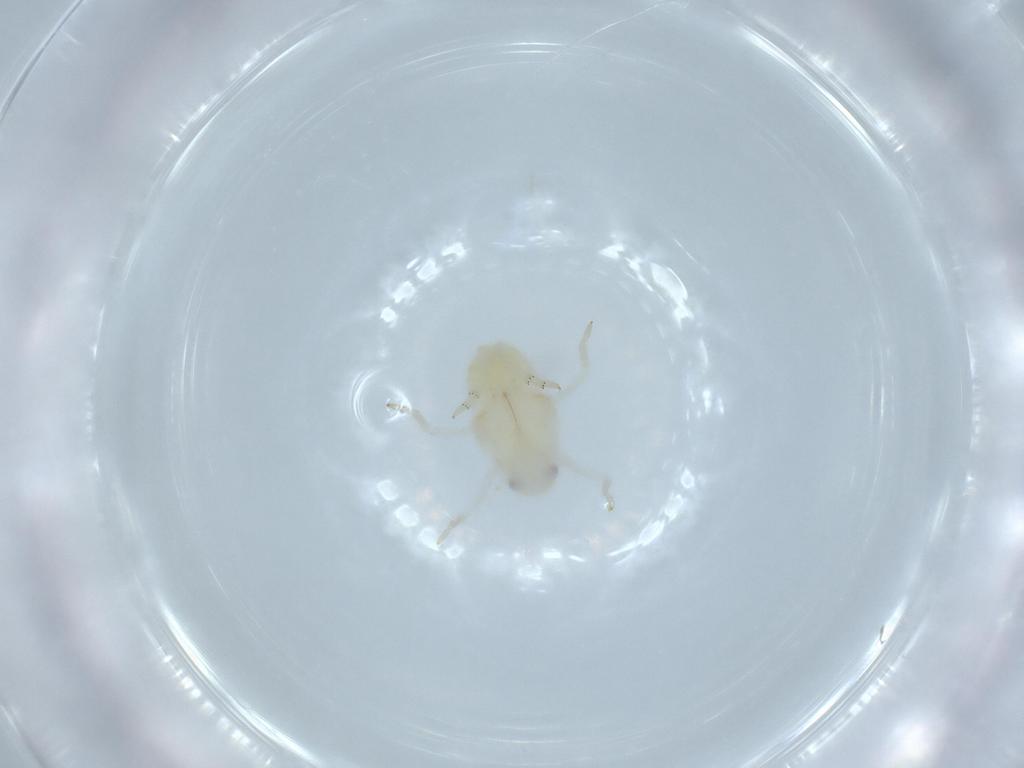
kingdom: Animalia
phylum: Arthropoda
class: Insecta
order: Hemiptera
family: Flatidae
